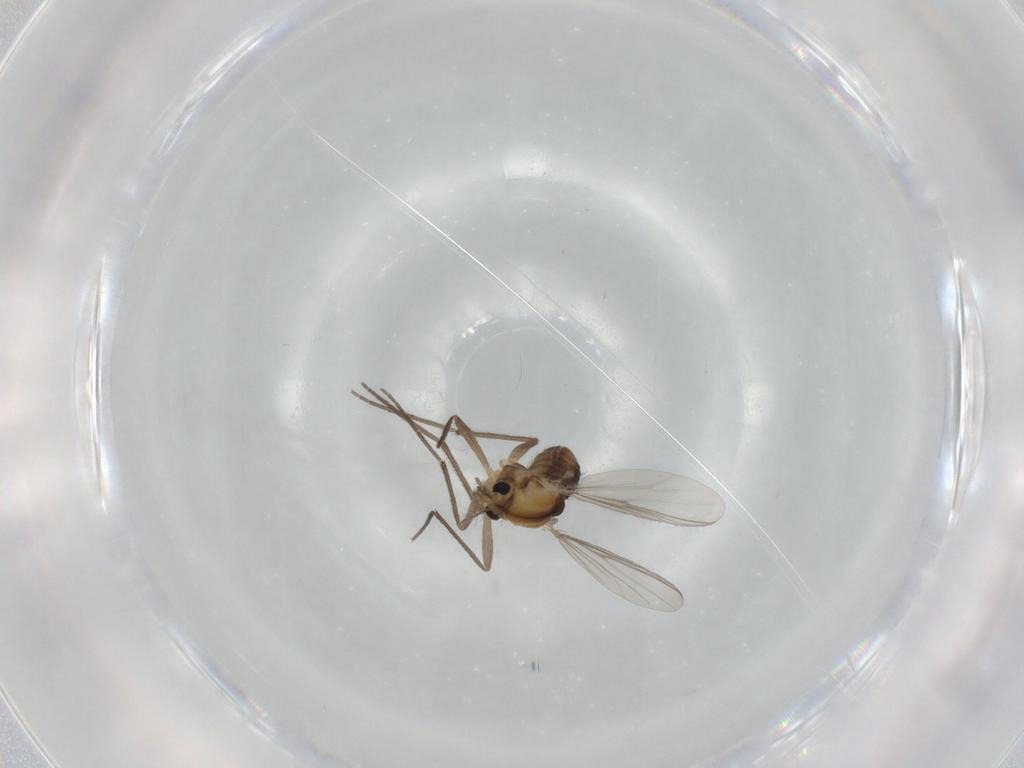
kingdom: Animalia
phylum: Arthropoda
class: Insecta
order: Diptera
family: Chironomidae
